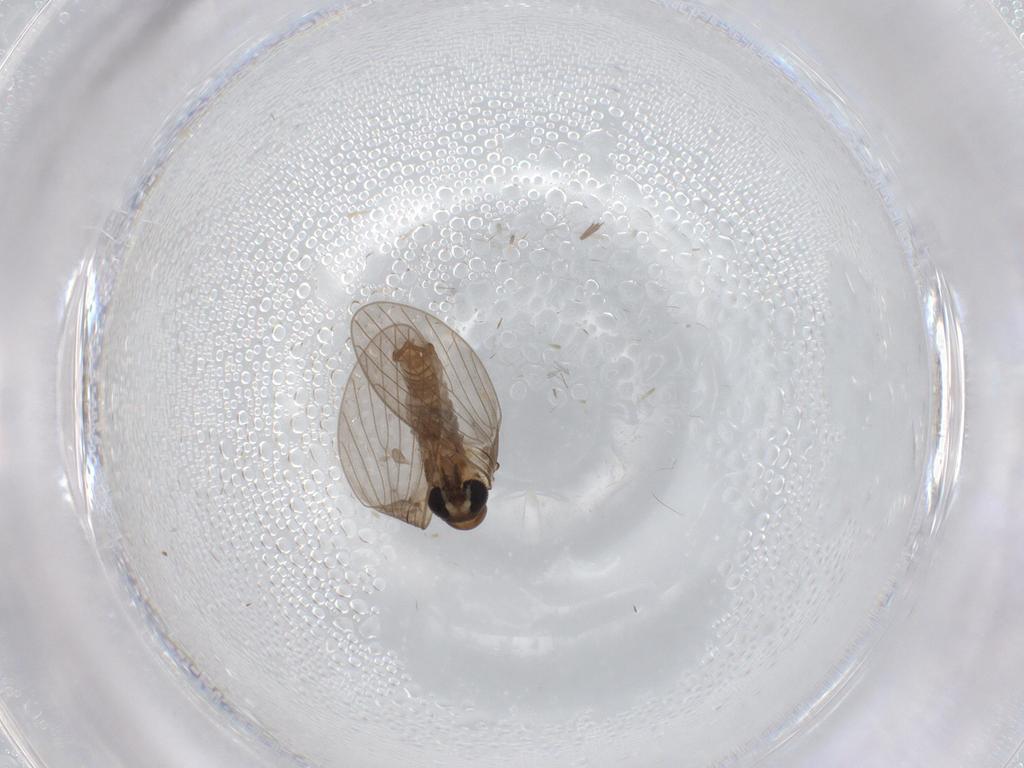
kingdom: Animalia
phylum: Arthropoda
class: Insecta
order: Diptera
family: Psychodidae
